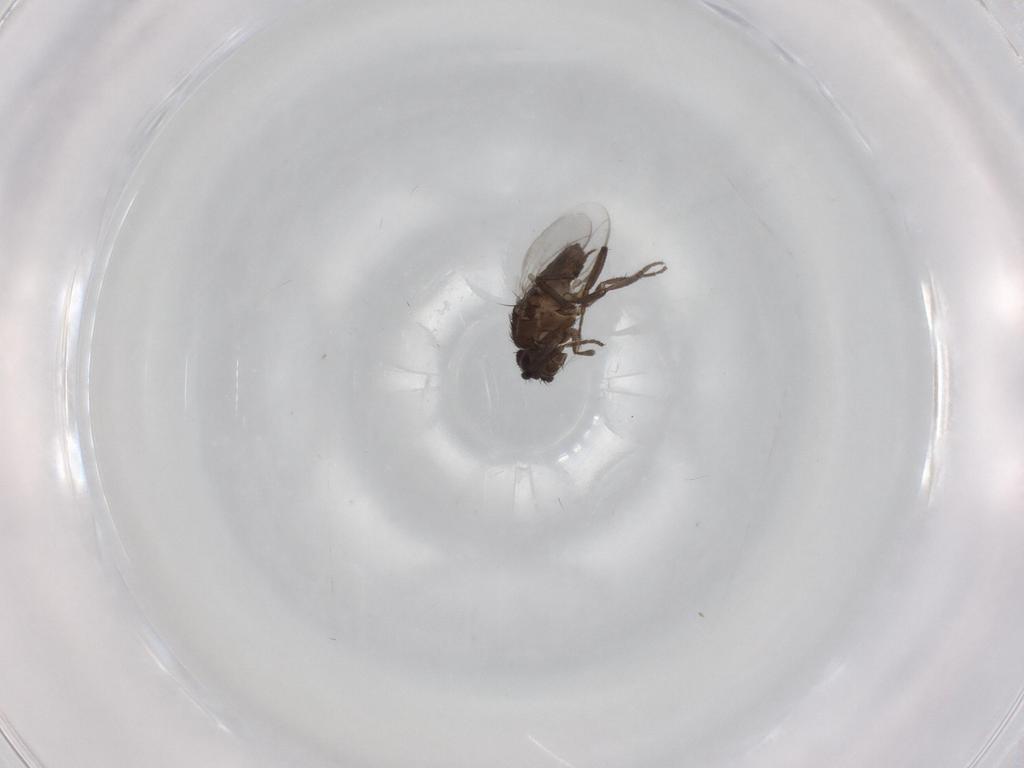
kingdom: Animalia
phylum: Arthropoda
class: Insecta
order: Diptera
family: Sphaeroceridae
